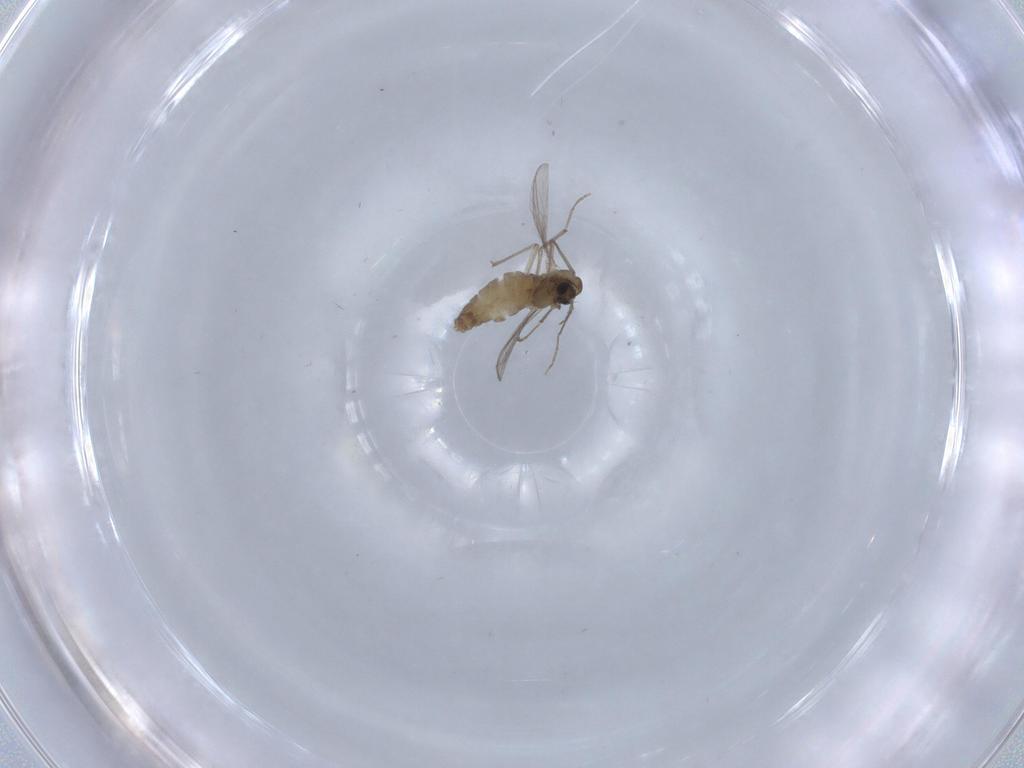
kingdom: Animalia
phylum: Arthropoda
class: Insecta
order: Diptera
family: Chironomidae
